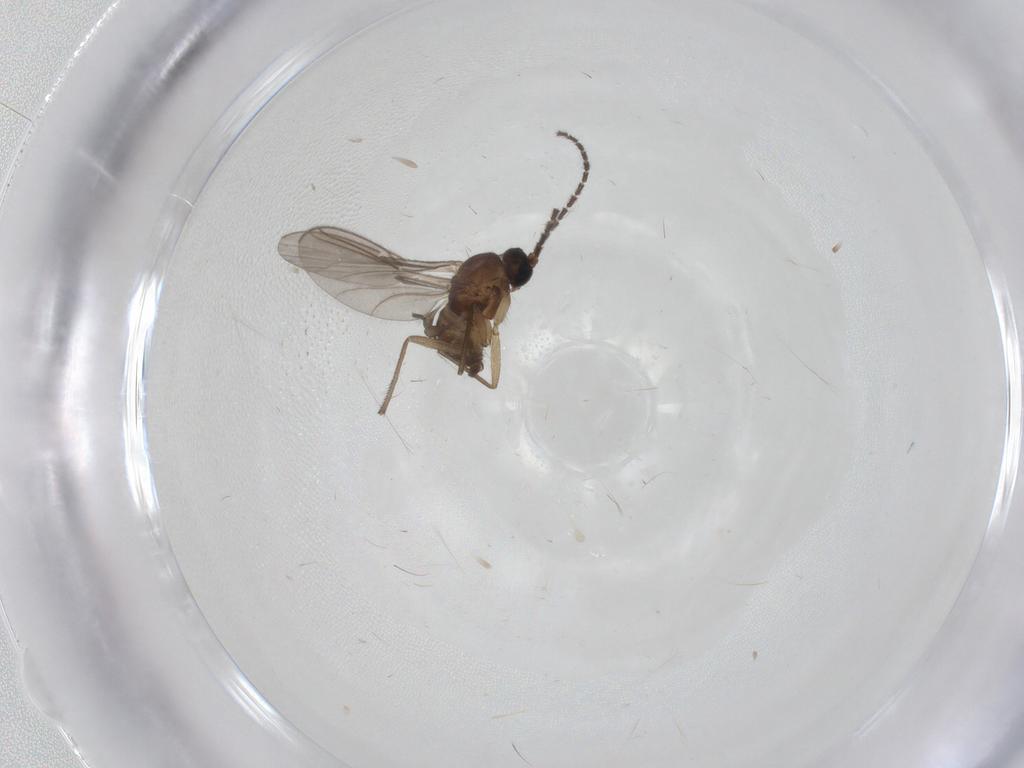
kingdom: Animalia
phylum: Arthropoda
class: Insecta
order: Diptera
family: Sciaridae
